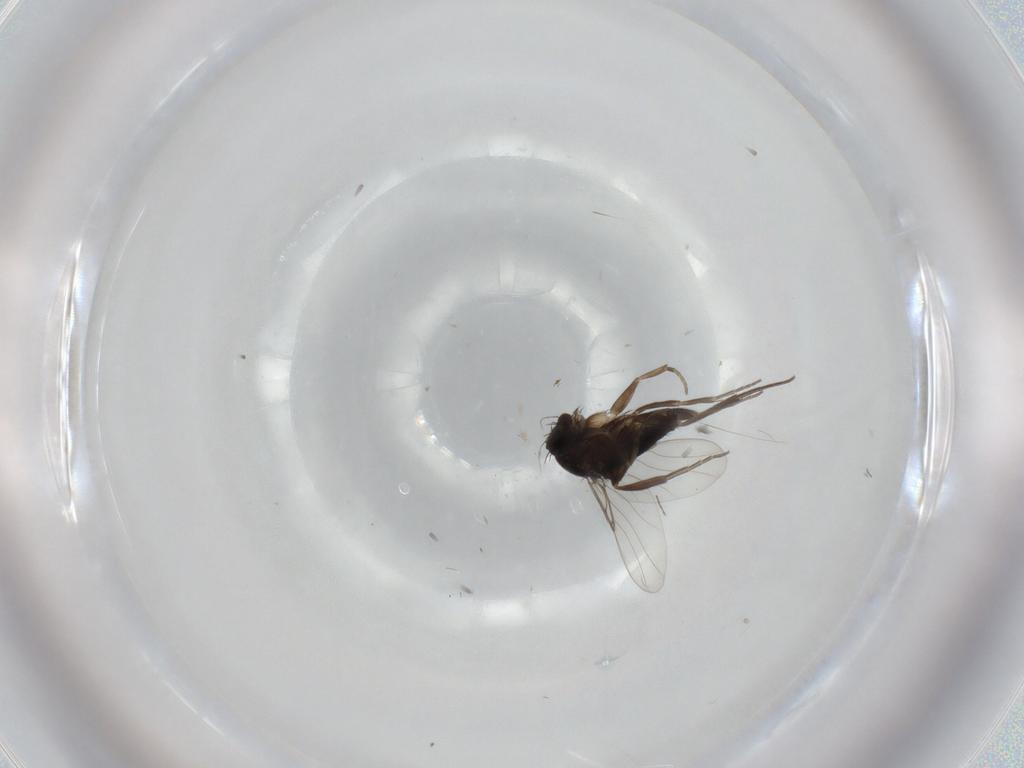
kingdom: Animalia
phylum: Arthropoda
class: Insecta
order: Diptera
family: Phoridae
